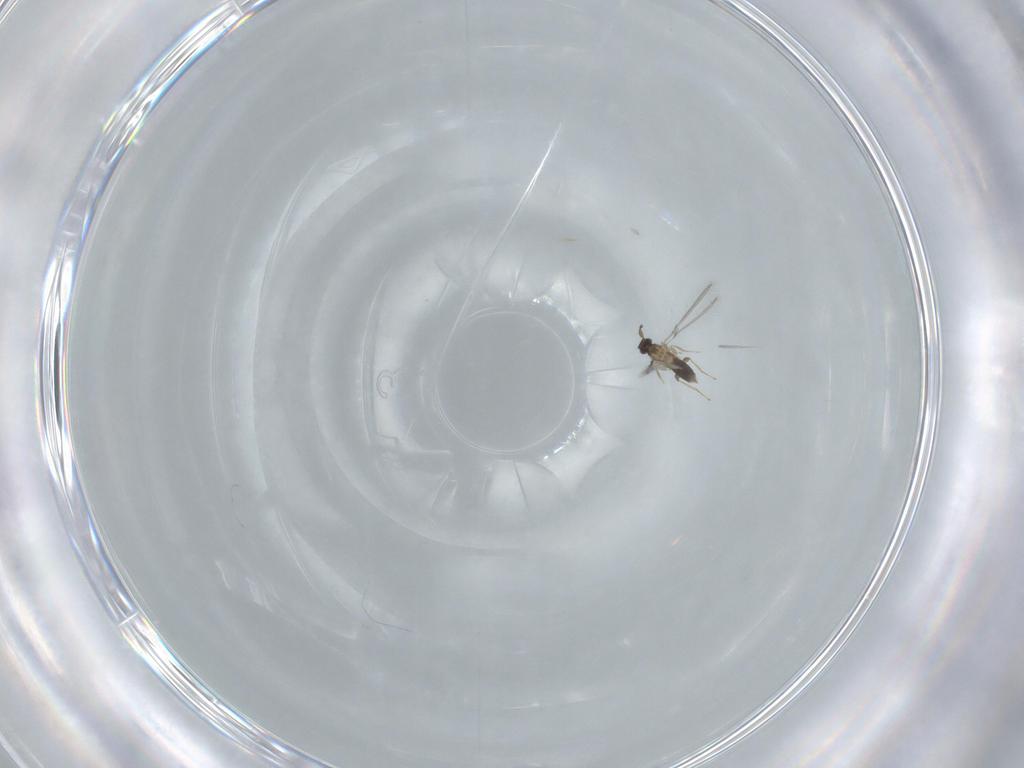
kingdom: Animalia
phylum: Arthropoda
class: Insecta
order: Hymenoptera
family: Mymaridae
